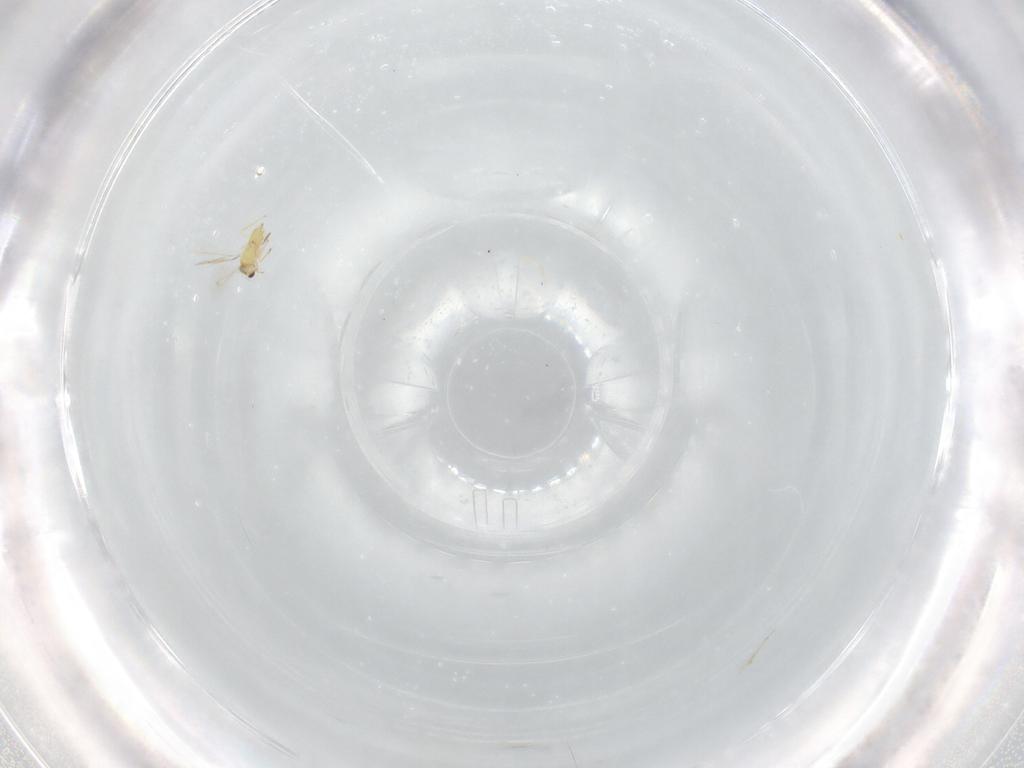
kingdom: Animalia
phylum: Arthropoda
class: Insecta
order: Hymenoptera
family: Mymaridae
